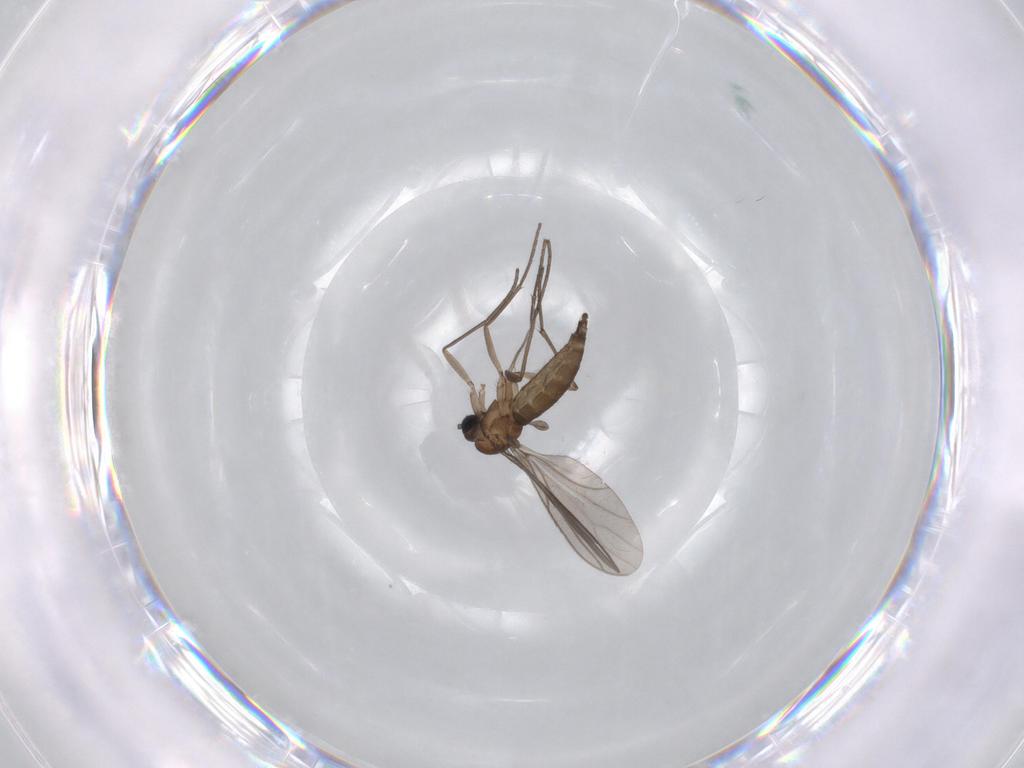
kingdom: Animalia
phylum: Arthropoda
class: Insecta
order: Diptera
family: Sciaridae
